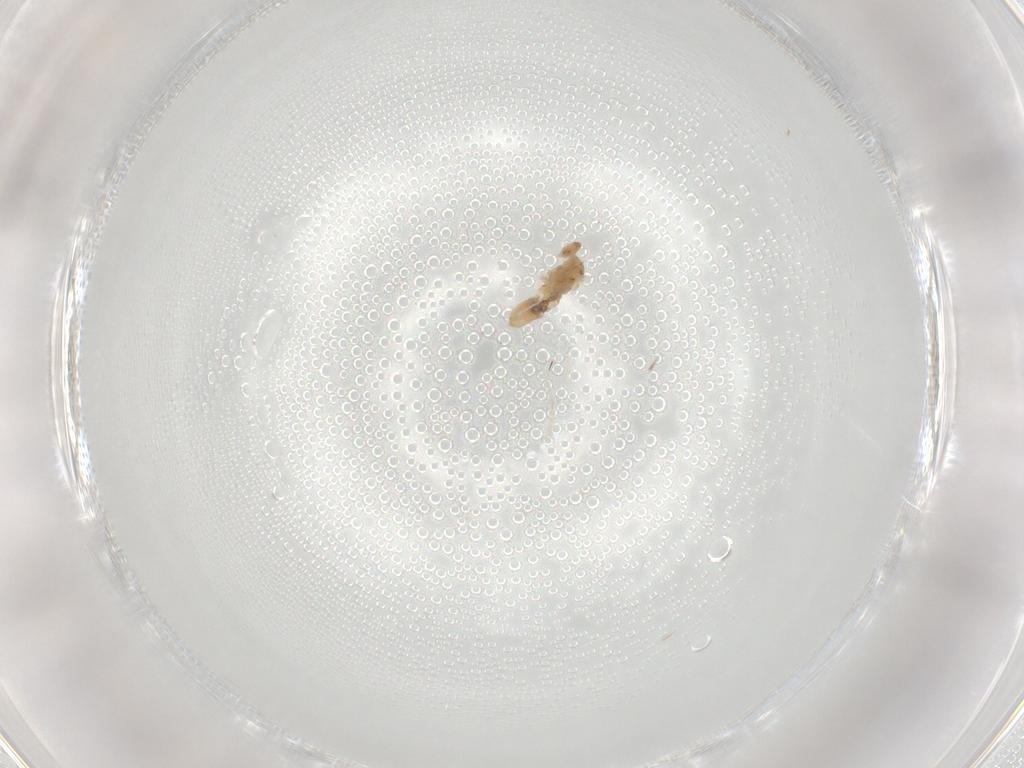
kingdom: Animalia
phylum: Arthropoda
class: Insecta
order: Diptera
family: Cecidomyiidae
